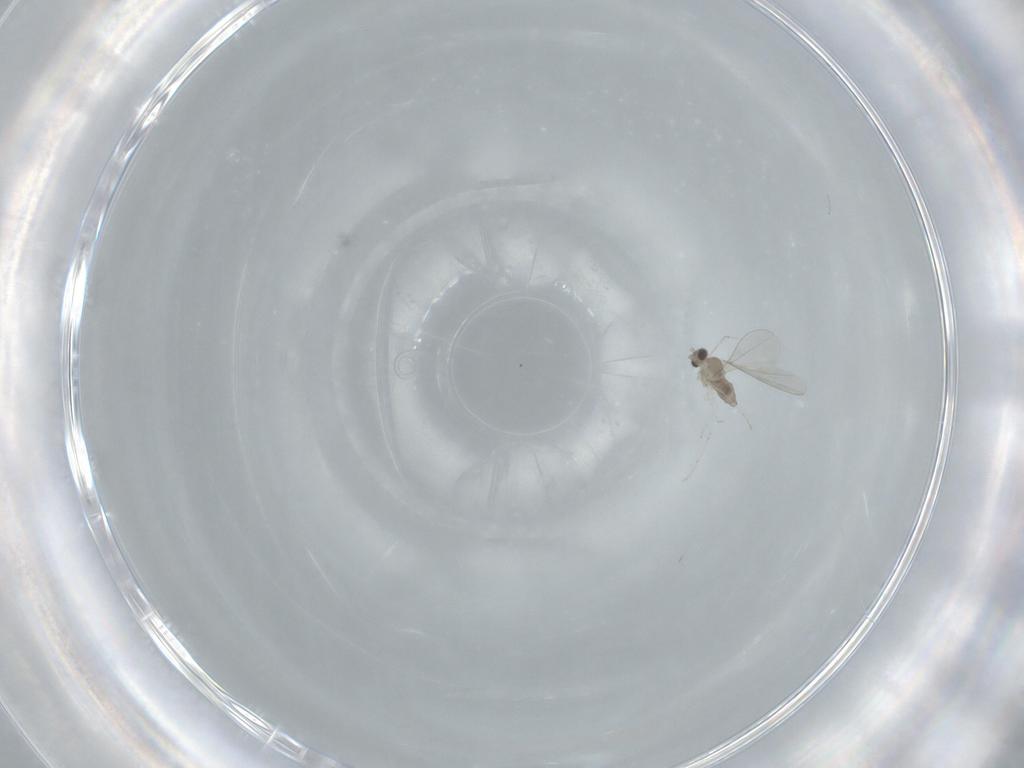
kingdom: Animalia
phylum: Arthropoda
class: Insecta
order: Diptera
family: Cecidomyiidae
